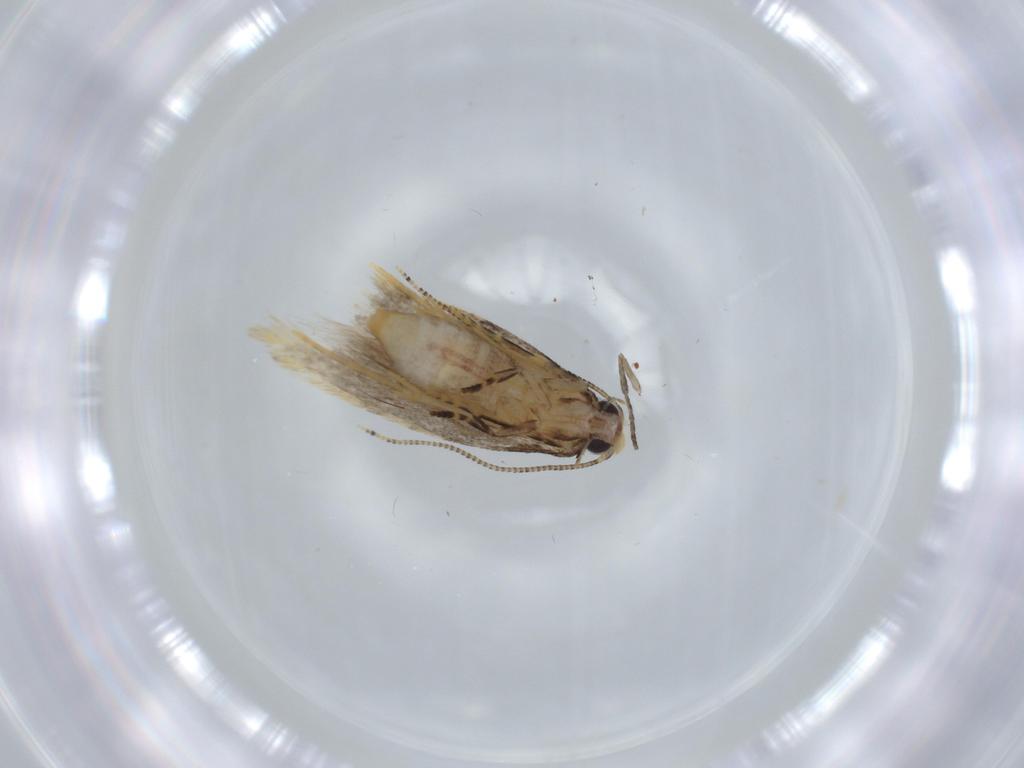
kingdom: Animalia
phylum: Arthropoda
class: Insecta
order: Lepidoptera
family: Tineidae
